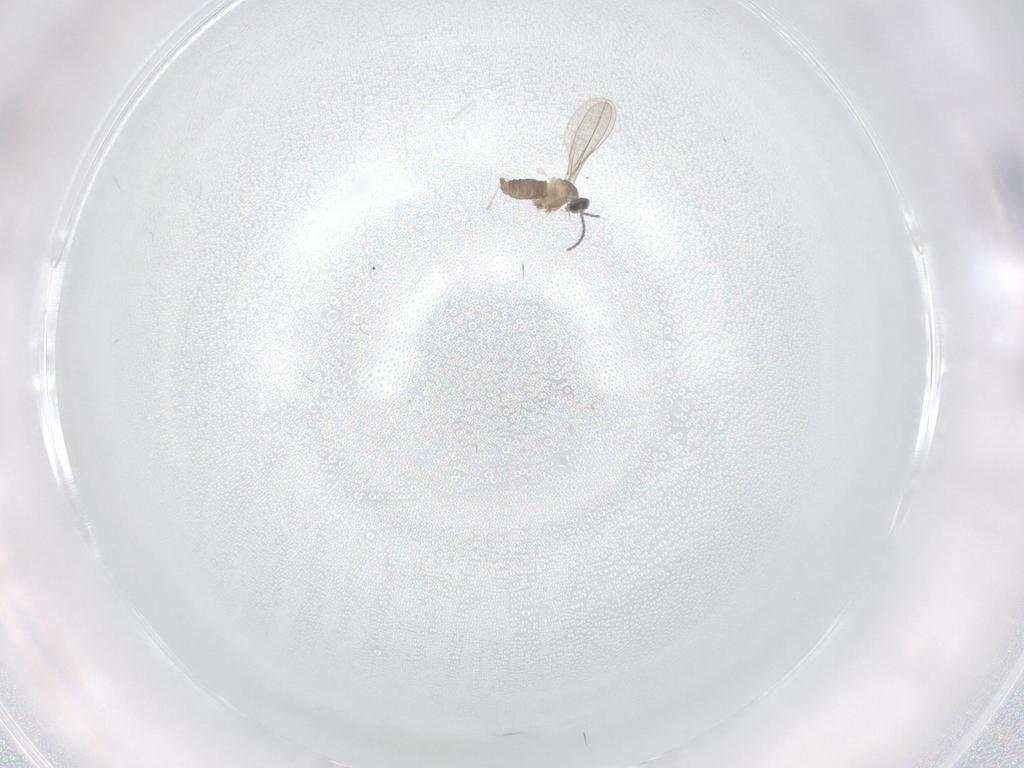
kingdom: Animalia
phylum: Arthropoda
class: Insecta
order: Diptera
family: Cecidomyiidae
